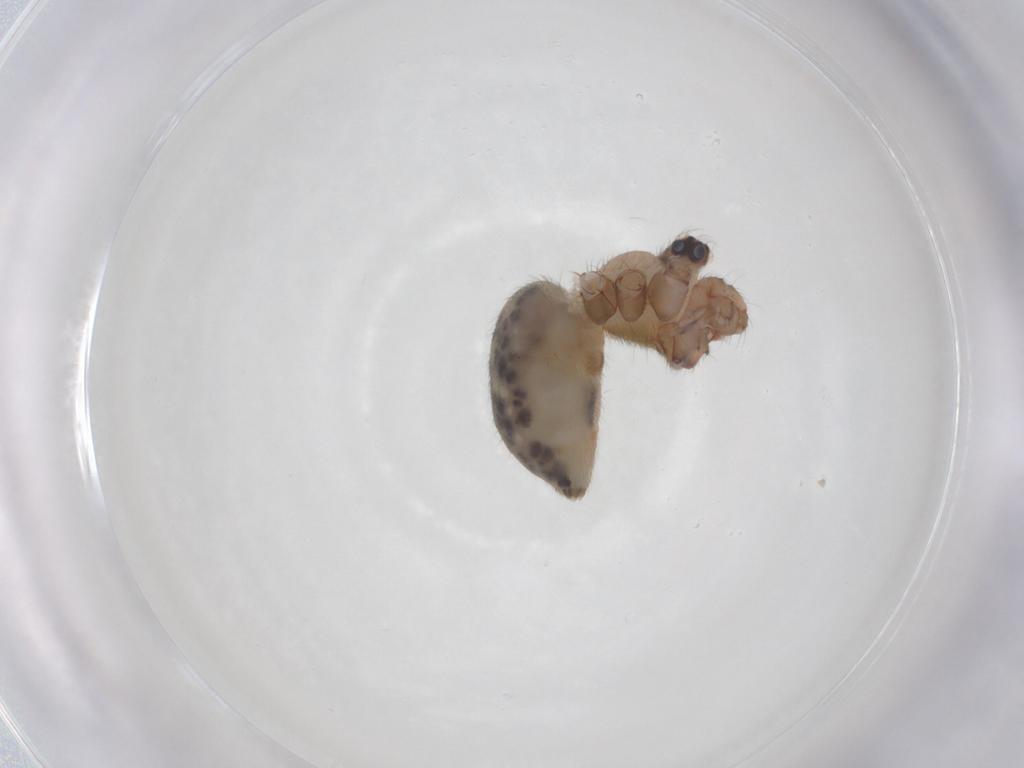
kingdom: Animalia
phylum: Arthropoda
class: Arachnida
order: Araneae
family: Pholcidae
